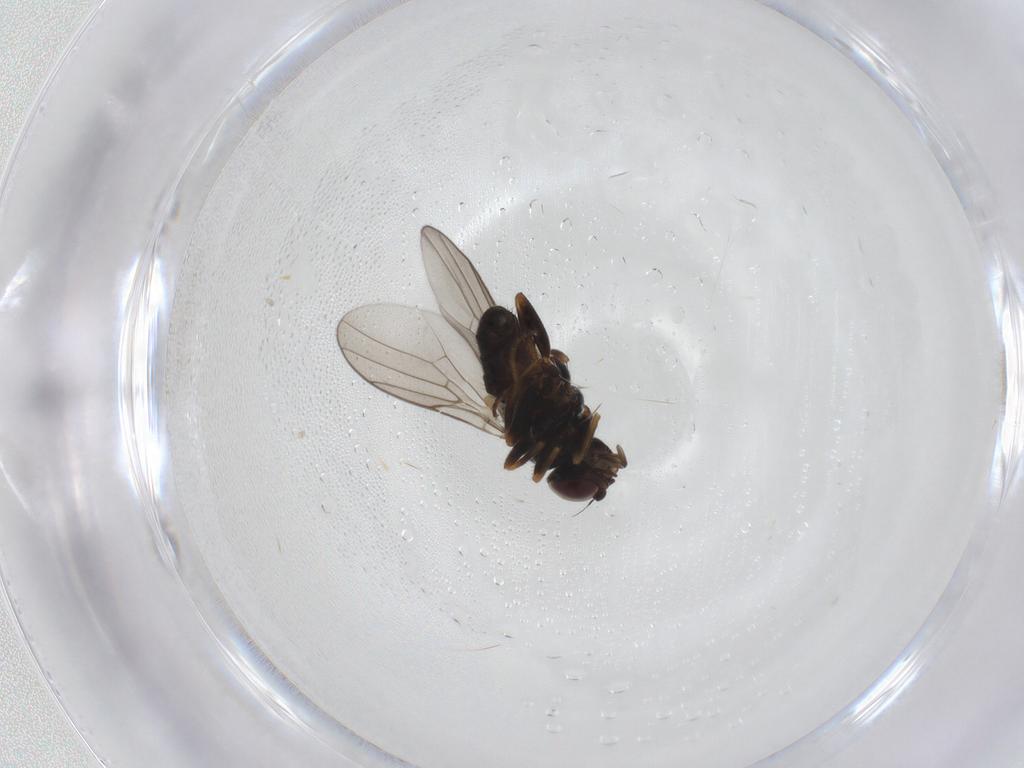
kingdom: Animalia
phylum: Arthropoda
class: Insecta
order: Diptera
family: Chloropidae
